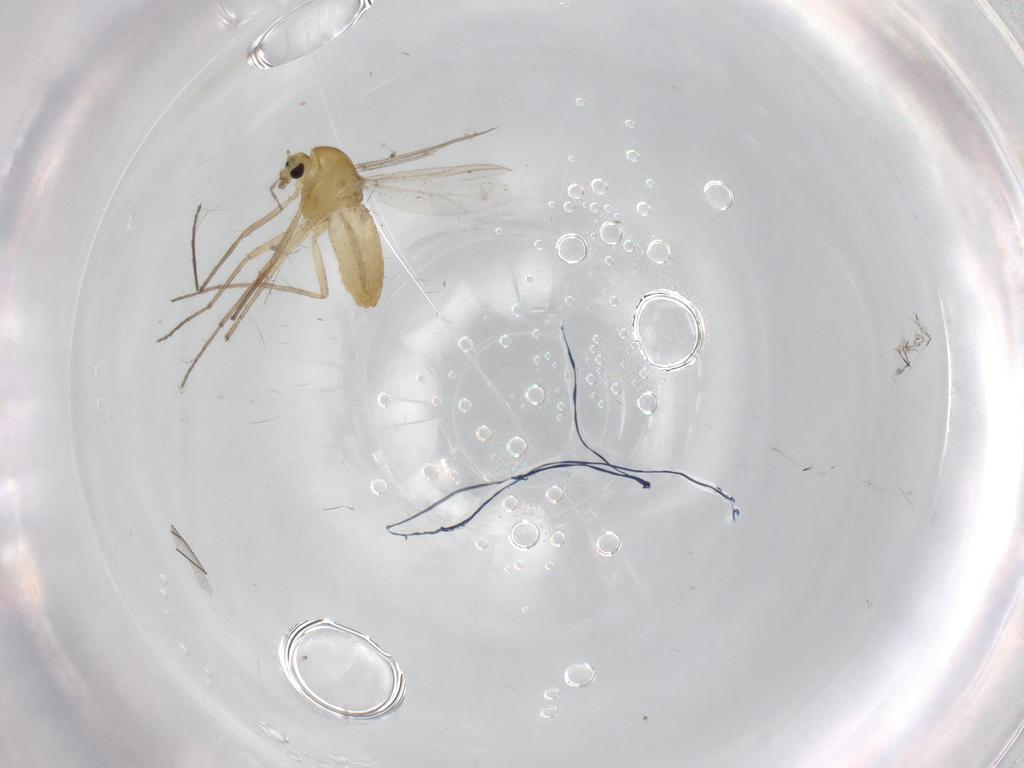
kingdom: Animalia
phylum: Arthropoda
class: Insecta
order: Diptera
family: Chironomidae
